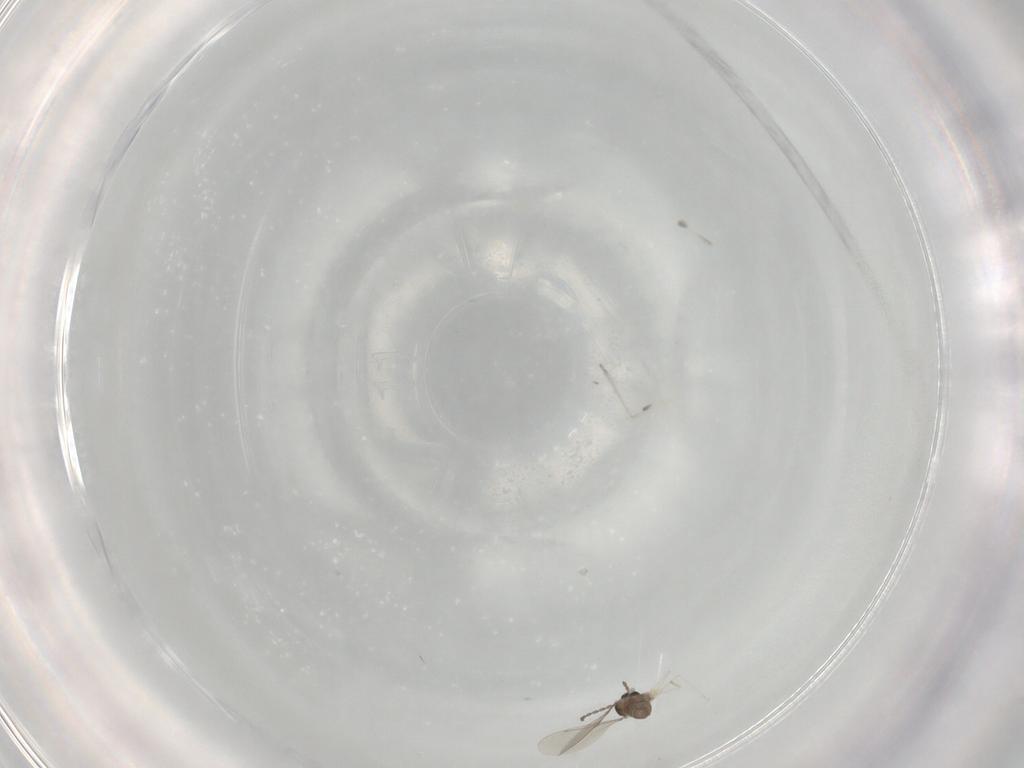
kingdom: Animalia
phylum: Arthropoda
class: Insecta
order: Diptera
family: Cecidomyiidae
